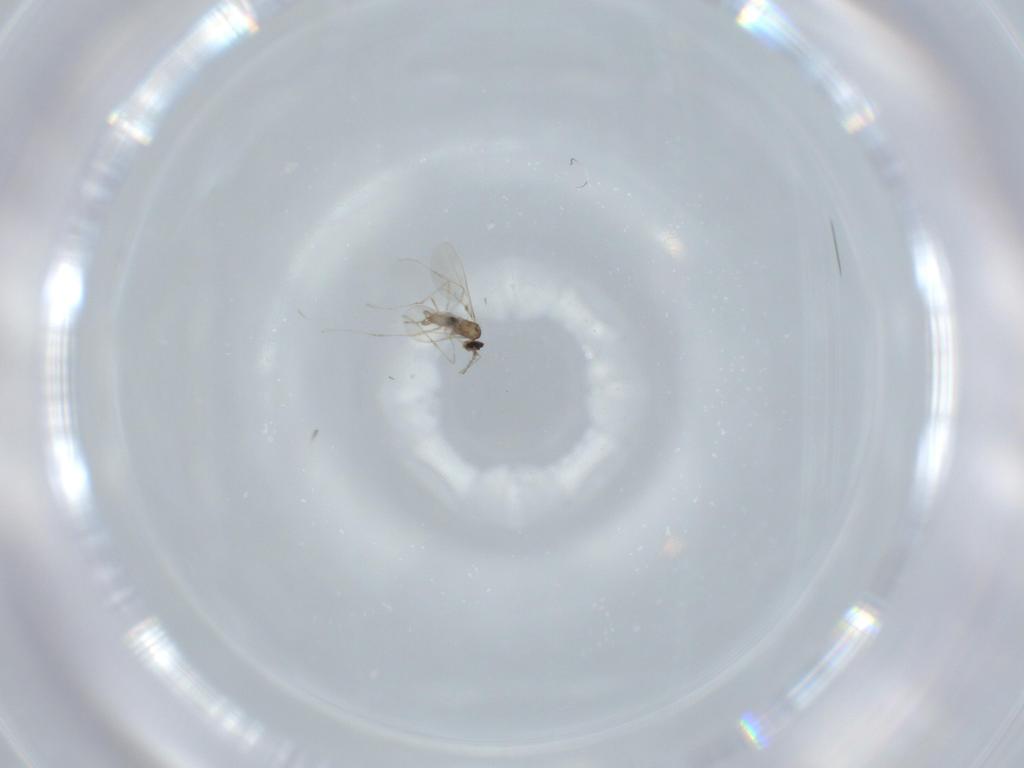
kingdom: Animalia
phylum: Arthropoda
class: Insecta
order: Diptera
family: Cecidomyiidae
